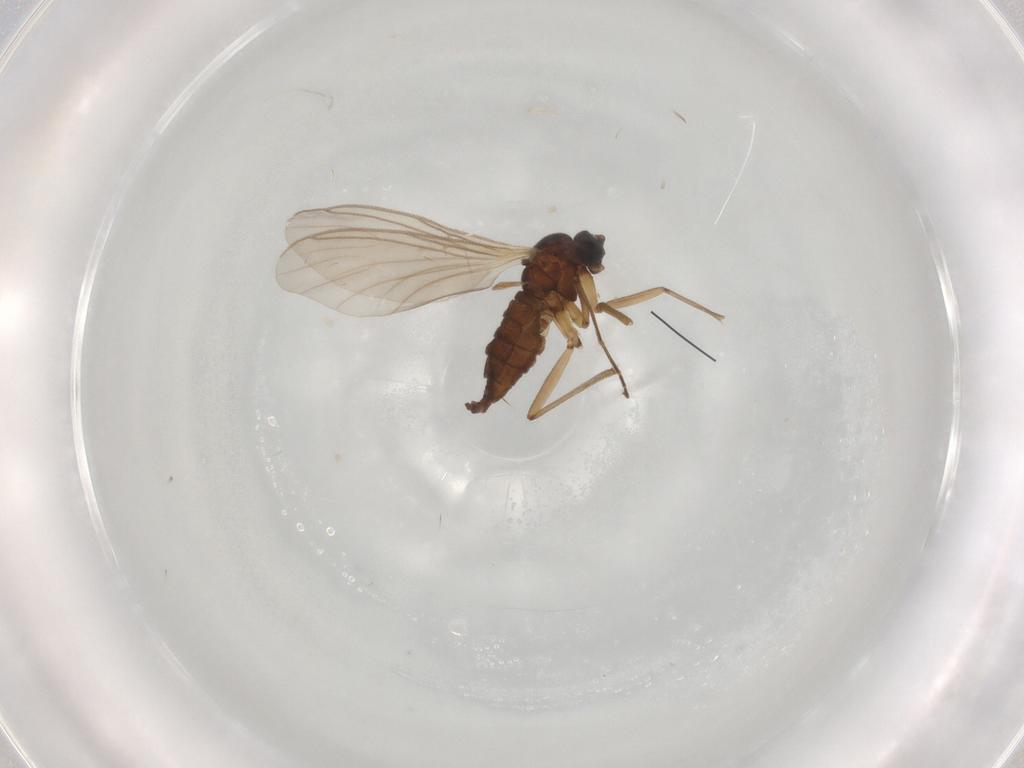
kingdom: Animalia
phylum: Arthropoda
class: Insecta
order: Diptera
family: Sciaridae
